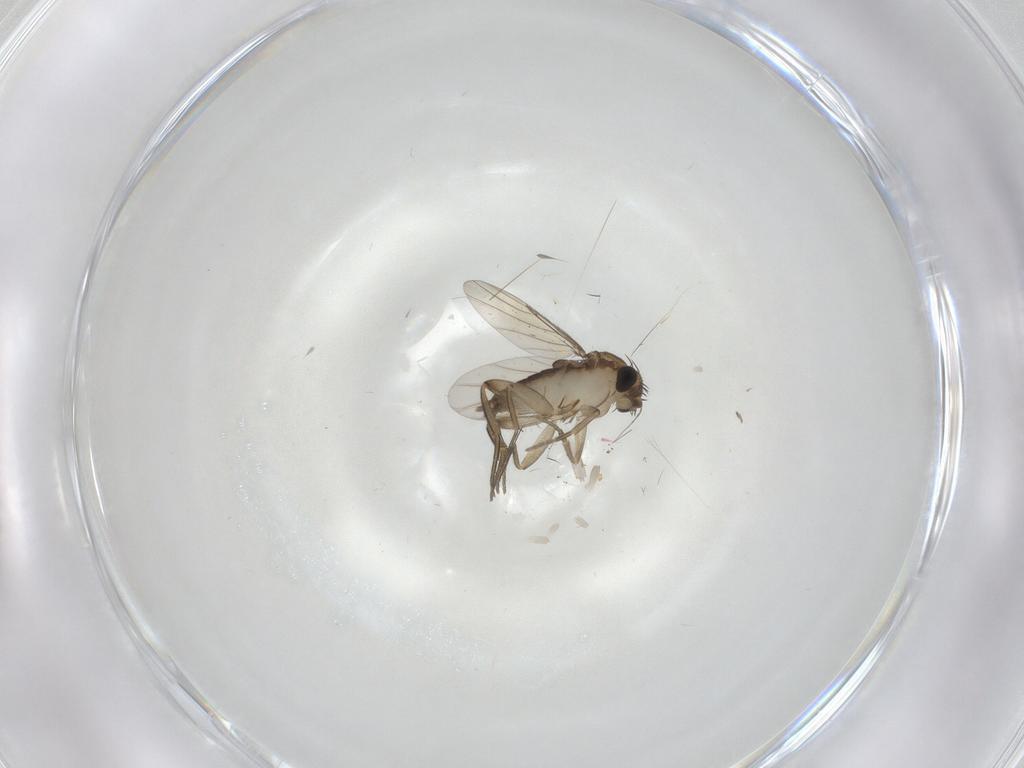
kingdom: Animalia
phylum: Arthropoda
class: Insecta
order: Diptera
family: Phoridae
